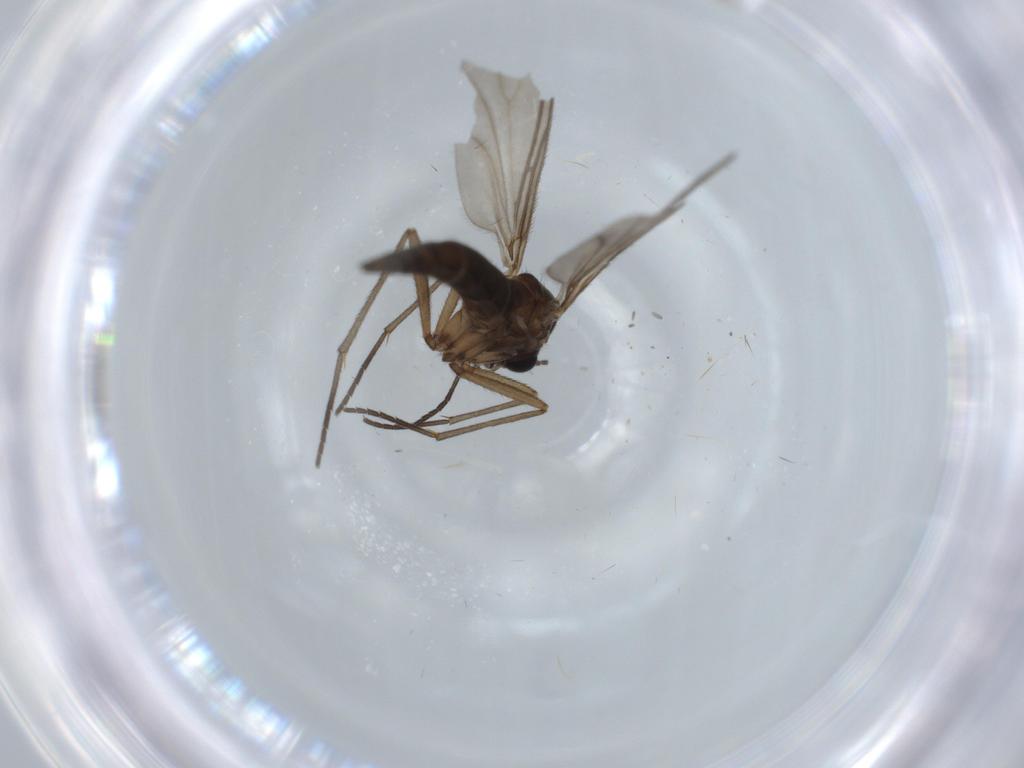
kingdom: Animalia
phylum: Arthropoda
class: Insecta
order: Diptera
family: Sciaridae
